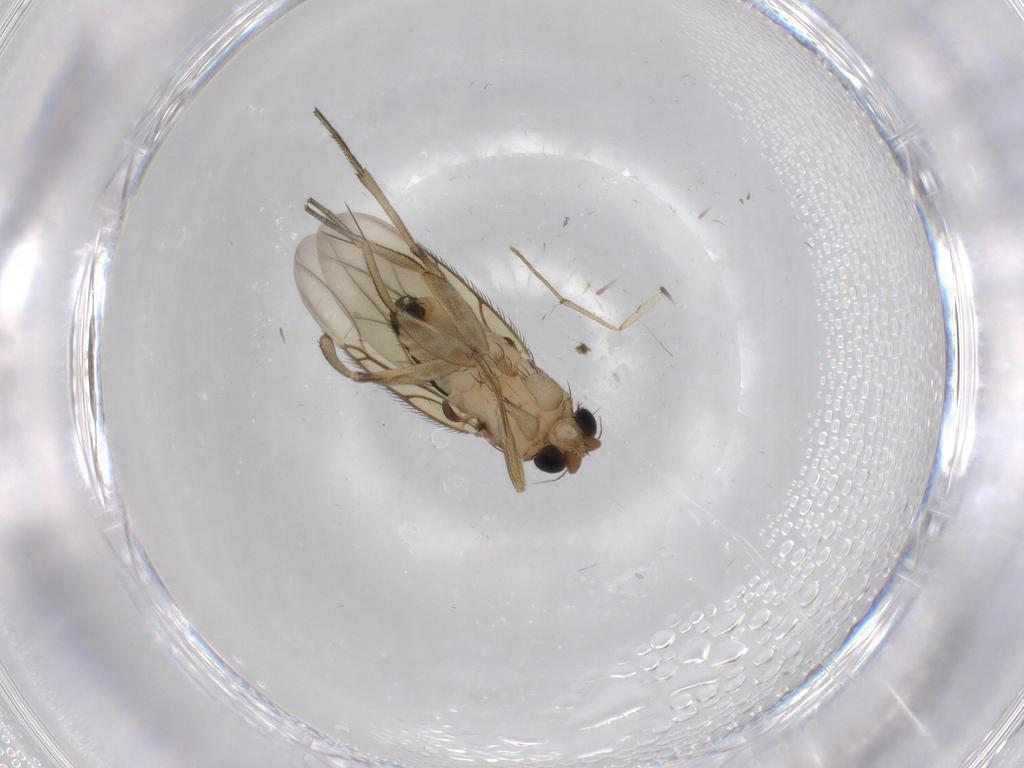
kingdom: Animalia
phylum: Arthropoda
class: Insecta
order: Diptera
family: Phoridae
